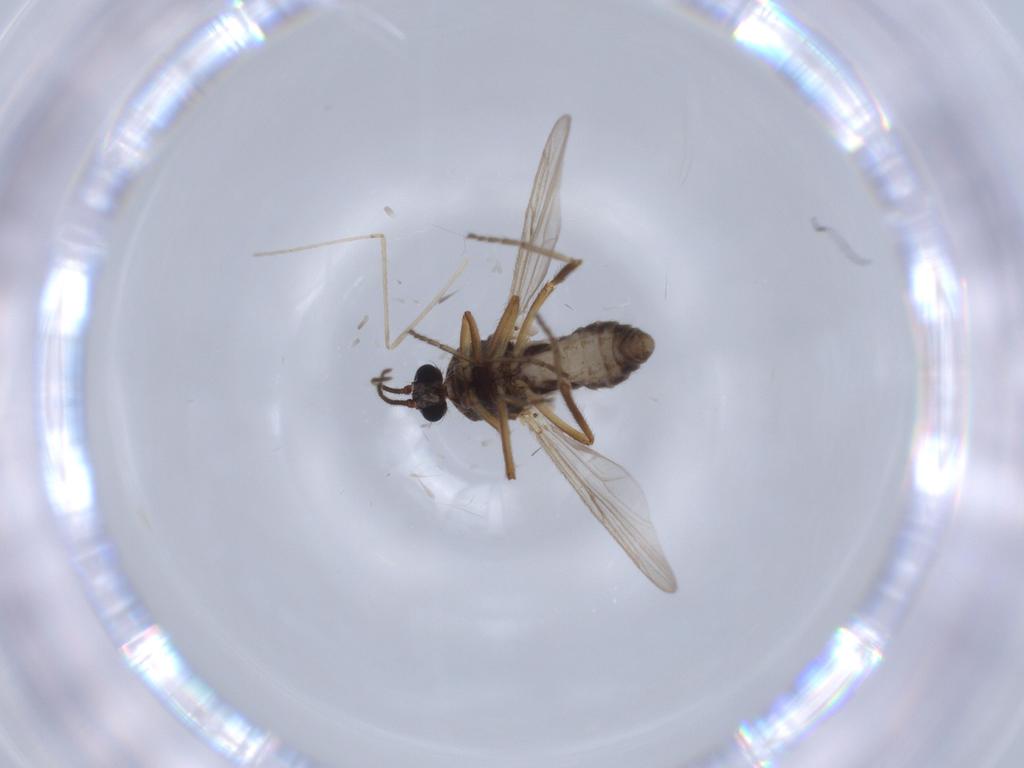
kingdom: Animalia
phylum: Arthropoda
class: Insecta
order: Diptera
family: Ceratopogonidae
